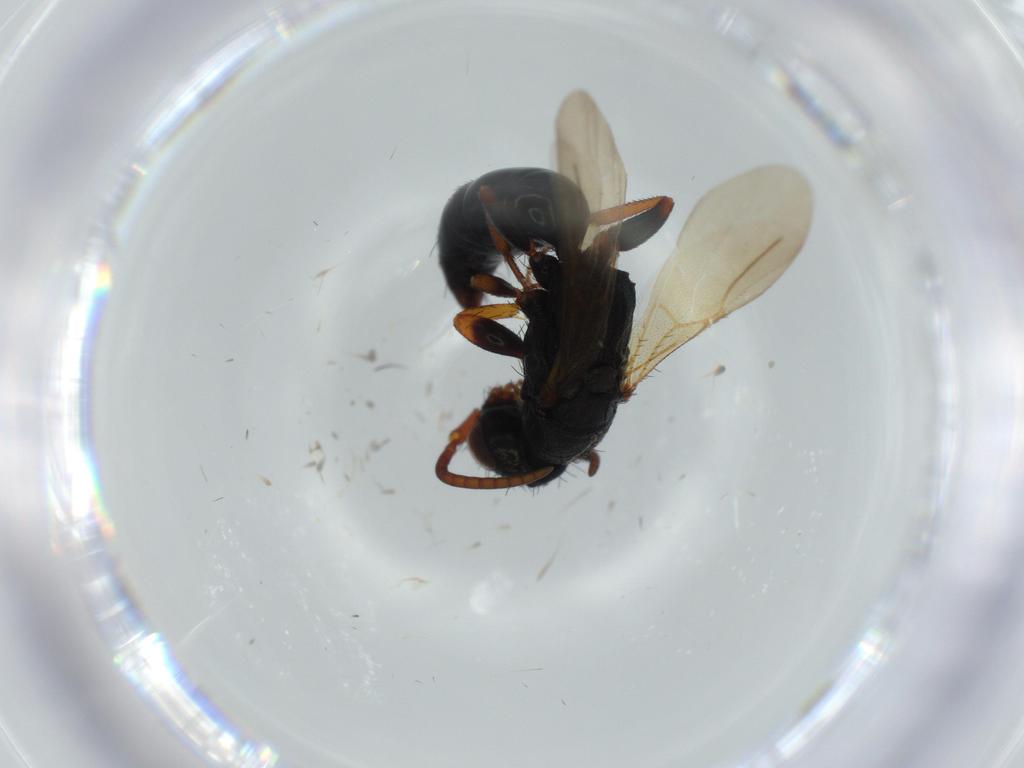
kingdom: Animalia
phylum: Arthropoda
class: Insecta
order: Hymenoptera
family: Bethylidae
